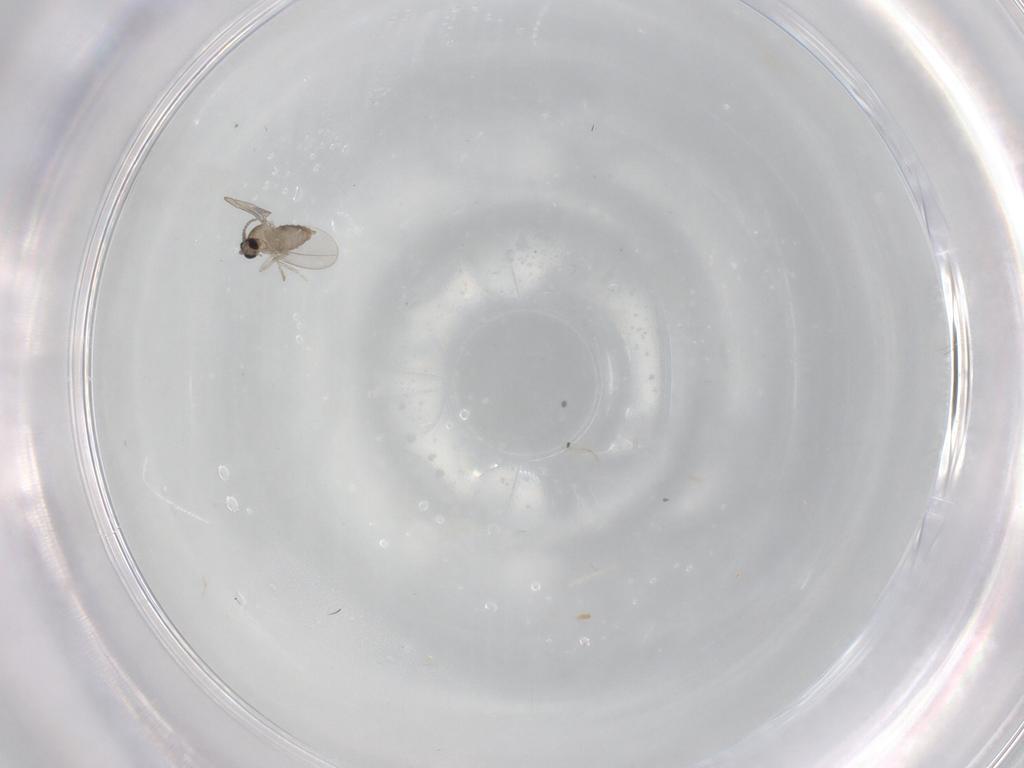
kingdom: Animalia
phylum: Arthropoda
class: Insecta
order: Diptera
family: Cecidomyiidae
